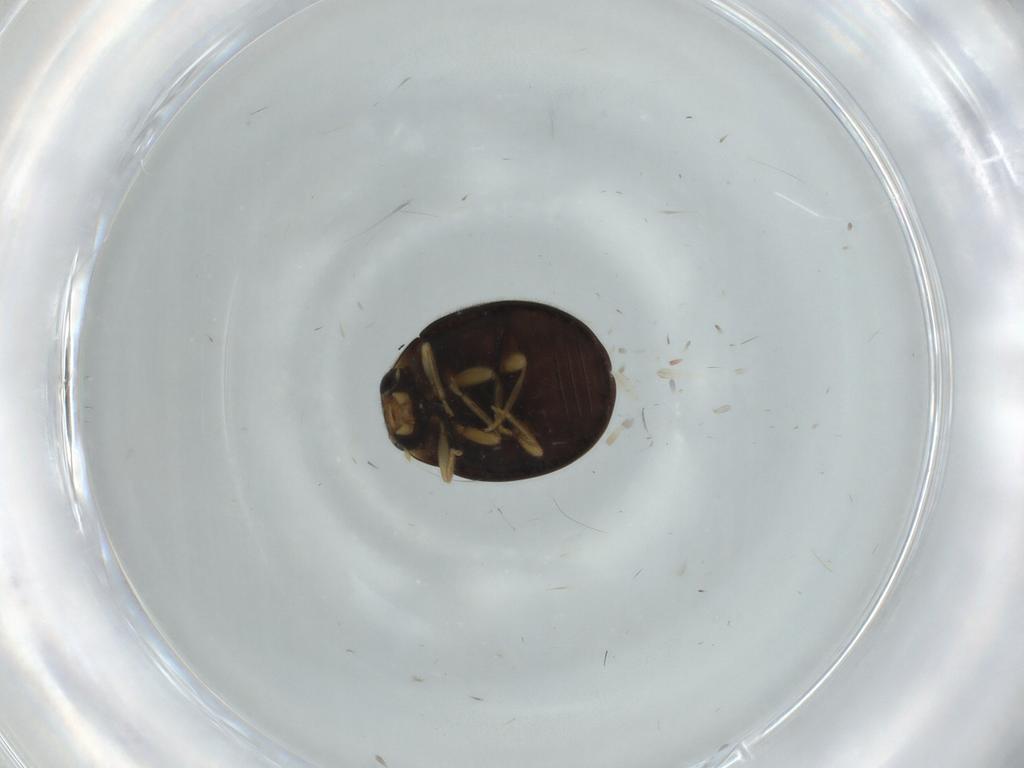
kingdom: Animalia
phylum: Arthropoda
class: Insecta
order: Coleoptera
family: Coccinellidae
